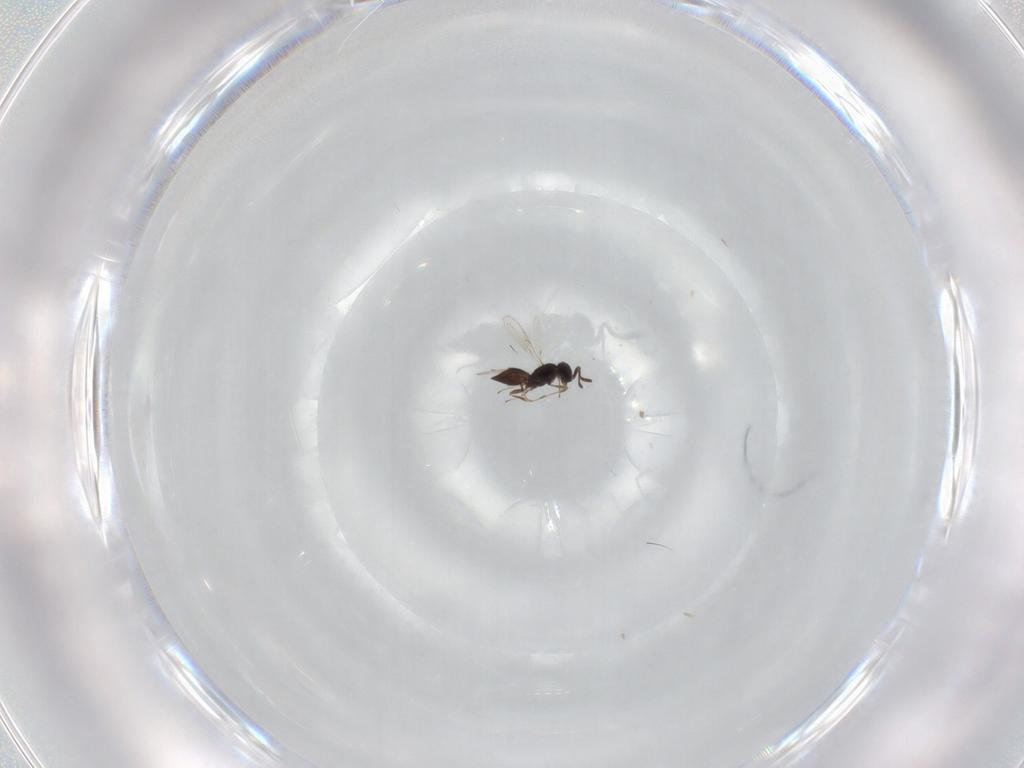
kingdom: Animalia
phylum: Arthropoda
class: Insecta
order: Hymenoptera
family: Scelionidae
